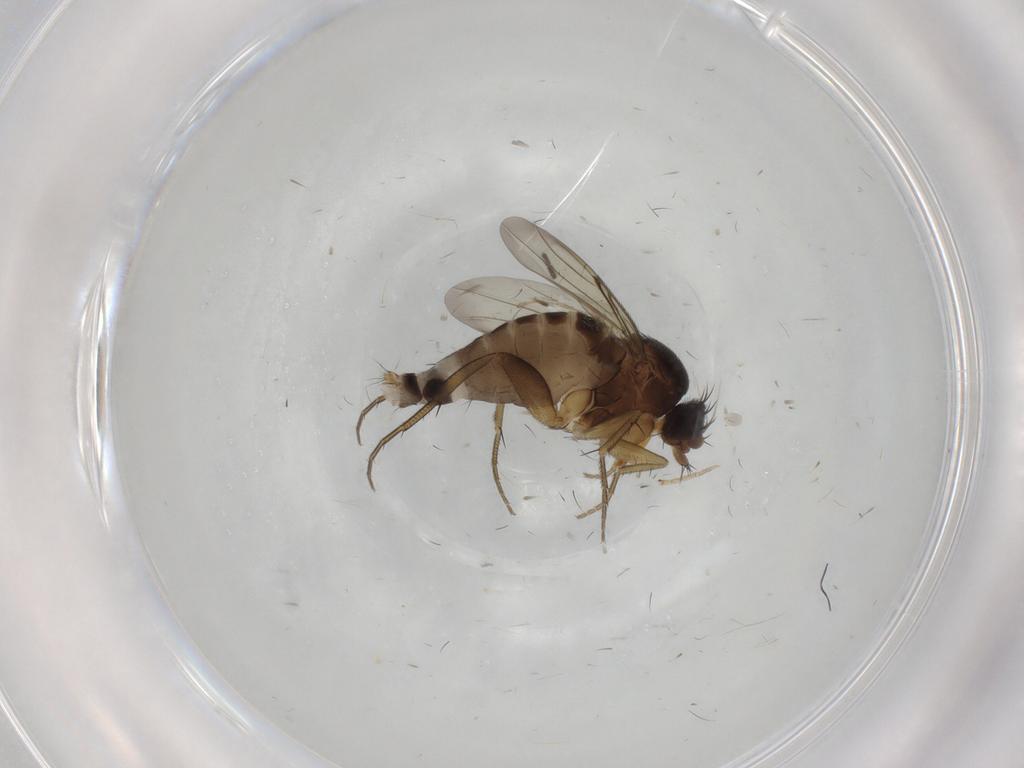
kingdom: Animalia
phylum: Arthropoda
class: Insecta
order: Diptera
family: Phoridae
